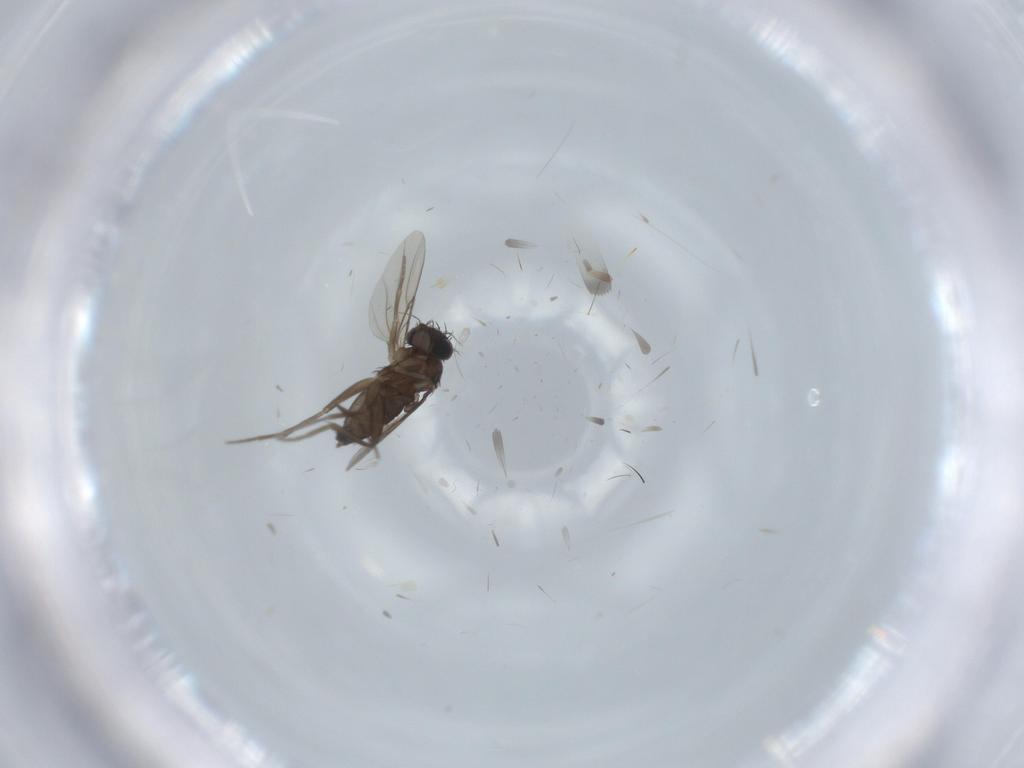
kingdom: Animalia
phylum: Arthropoda
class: Insecta
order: Diptera
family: Phoridae
